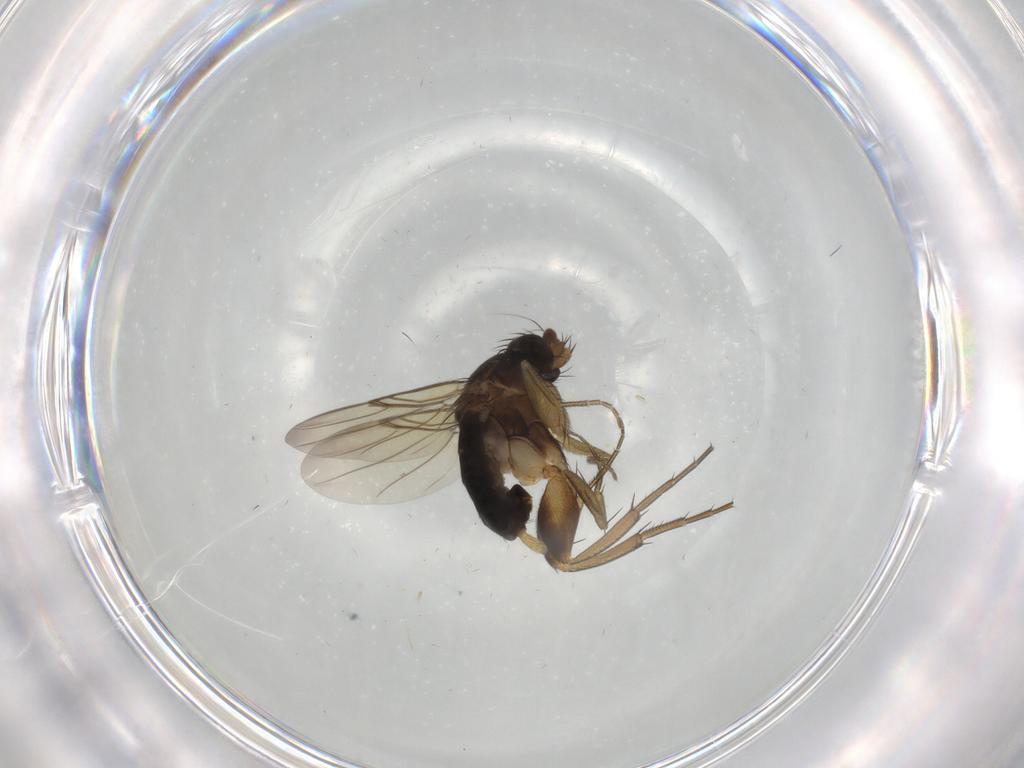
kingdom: Animalia
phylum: Arthropoda
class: Insecta
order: Diptera
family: Phoridae
